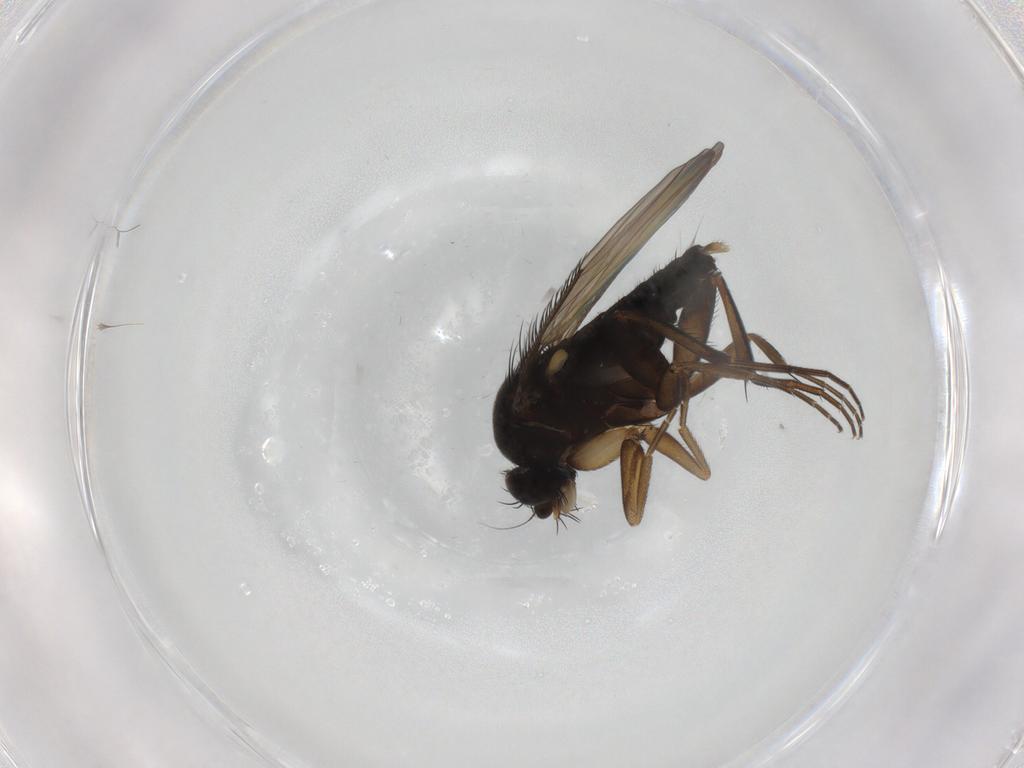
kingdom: Animalia
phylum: Arthropoda
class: Insecta
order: Diptera
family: Phoridae
